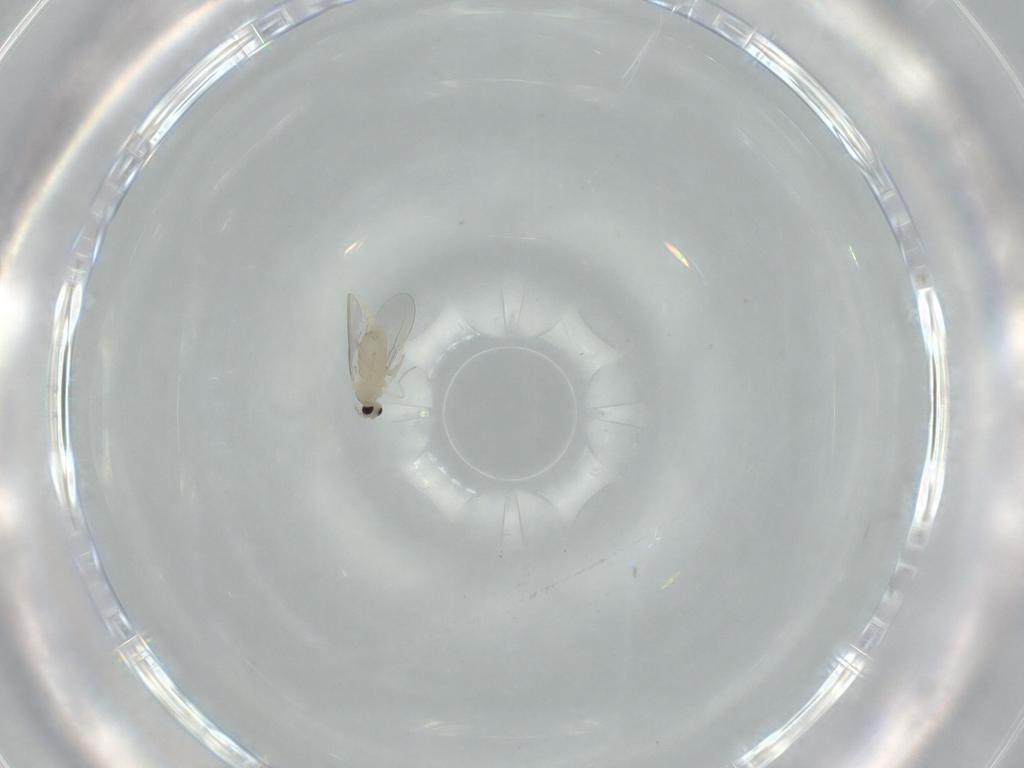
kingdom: Animalia
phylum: Arthropoda
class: Insecta
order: Diptera
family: Cecidomyiidae
